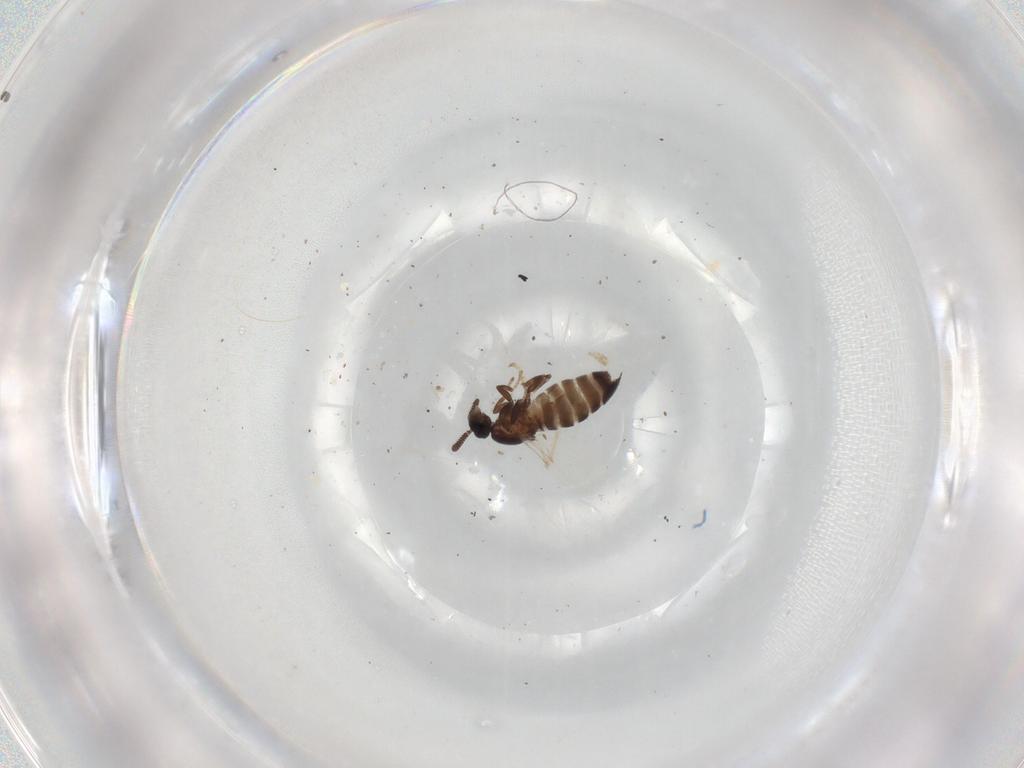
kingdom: Animalia
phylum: Arthropoda
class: Insecta
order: Diptera
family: Scatopsidae
